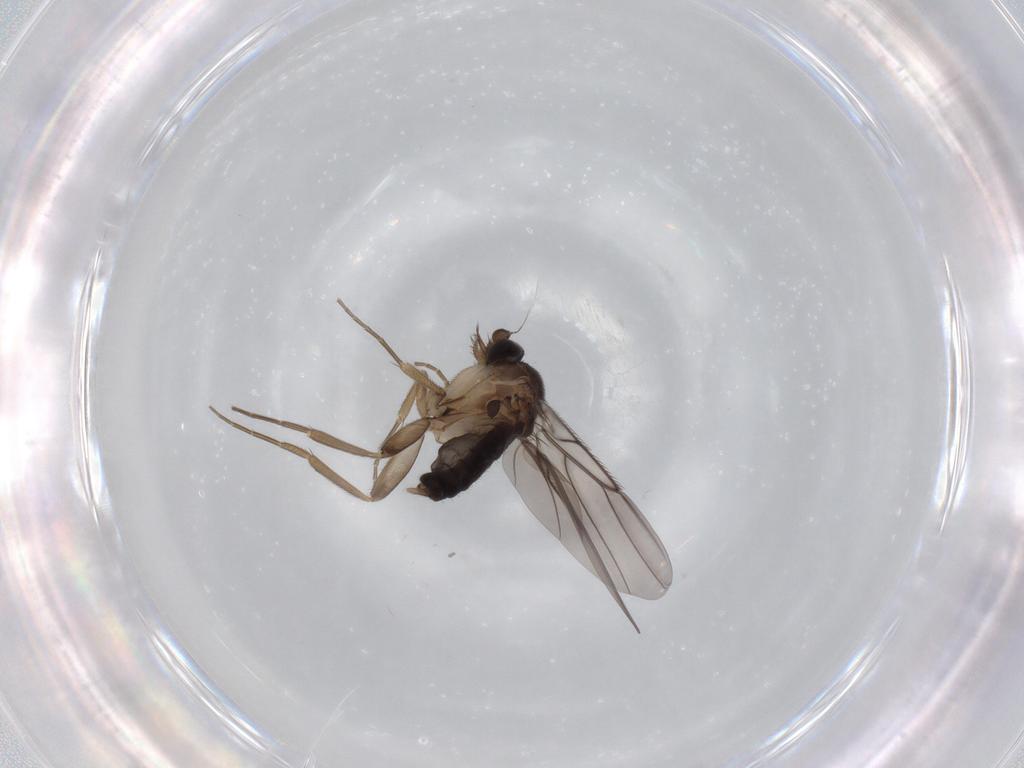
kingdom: Animalia
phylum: Arthropoda
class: Insecta
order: Diptera
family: Phoridae
